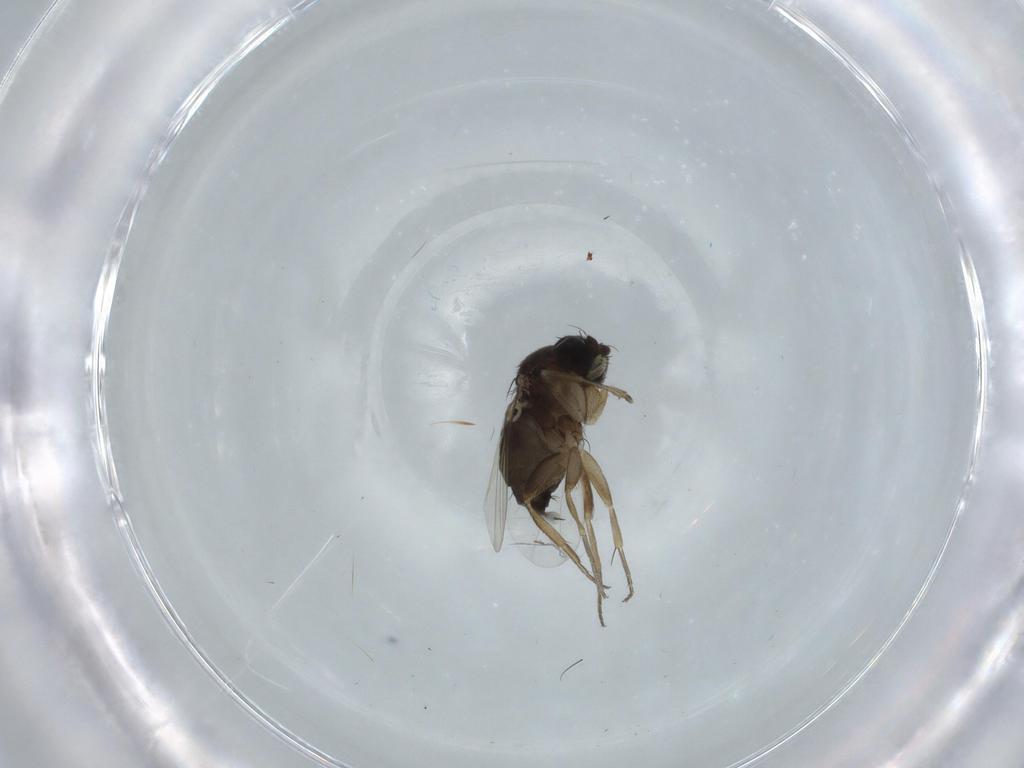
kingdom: Animalia
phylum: Arthropoda
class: Insecta
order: Diptera
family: Phoridae
